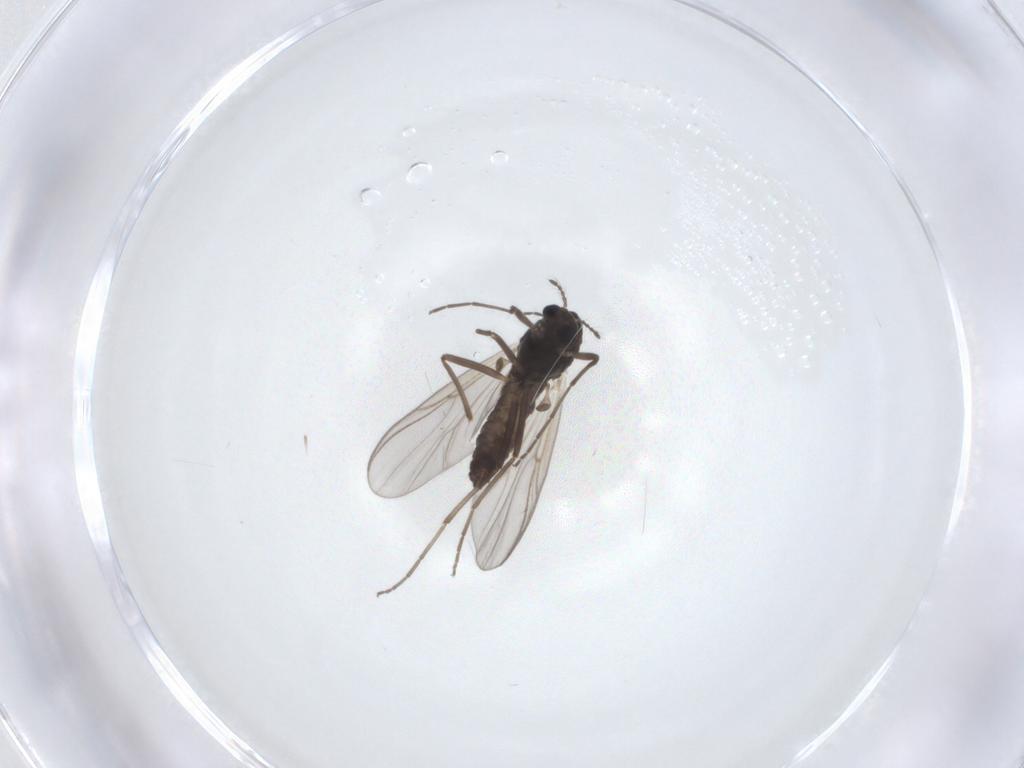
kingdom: Animalia
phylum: Arthropoda
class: Insecta
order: Diptera
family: Chironomidae
